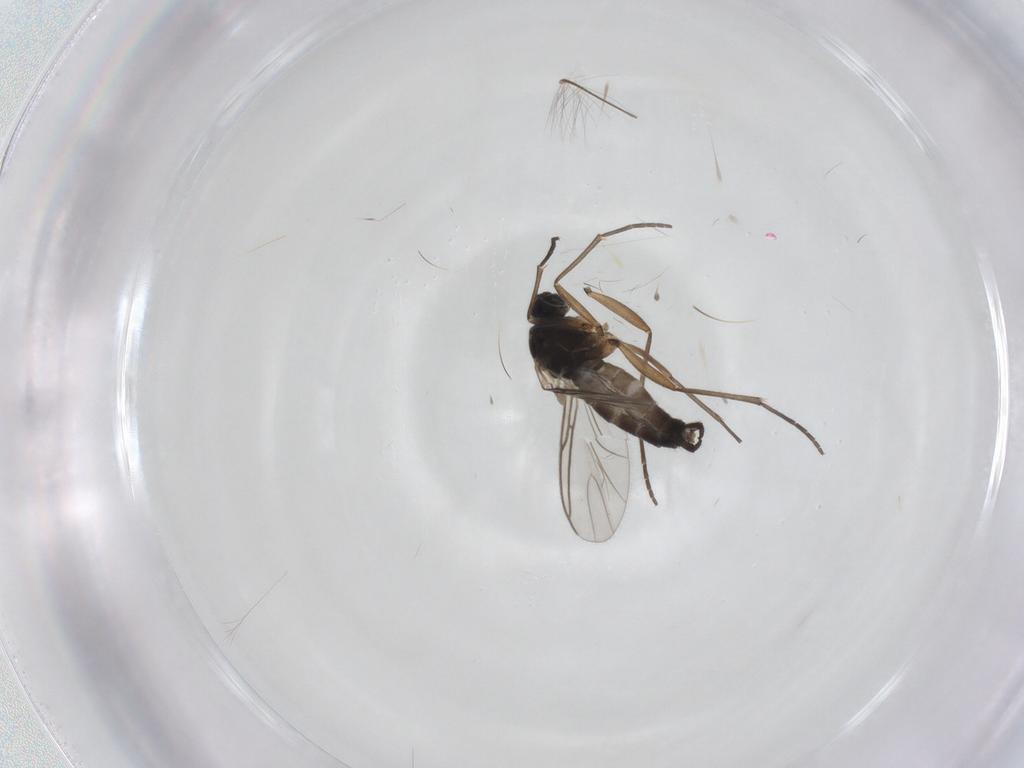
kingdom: Animalia
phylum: Arthropoda
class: Insecta
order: Diptera
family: Sciaridae
